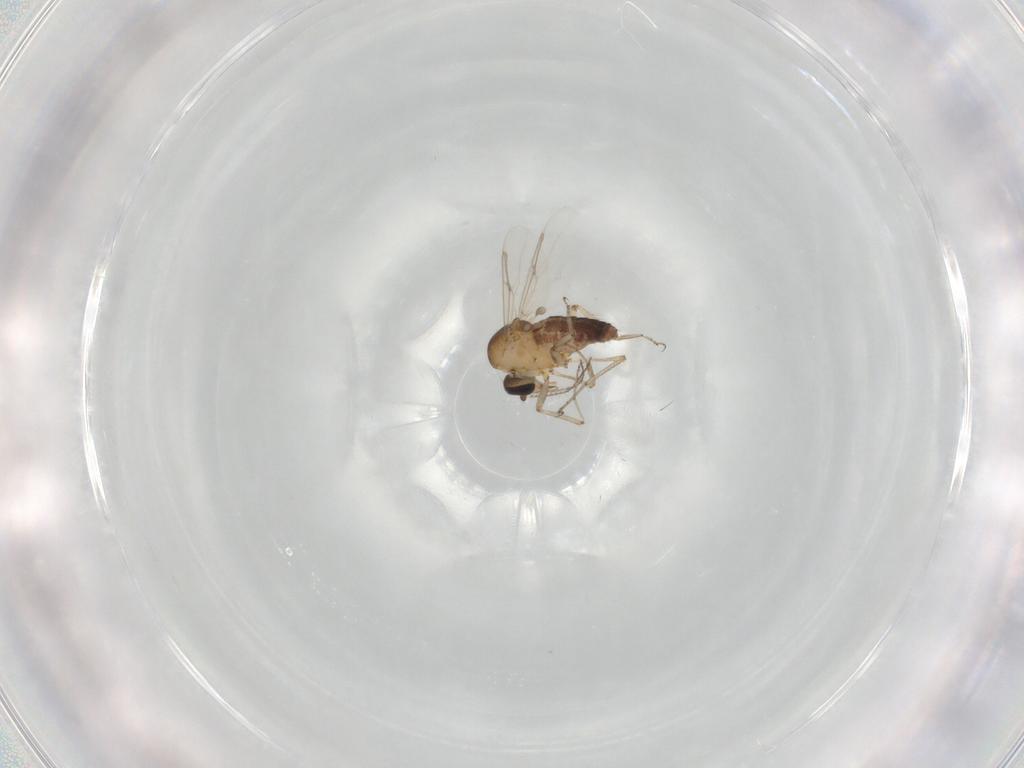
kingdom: Animalia
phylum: Arthropoda
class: Insecta
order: Diptera
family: Ceratopogonidae
